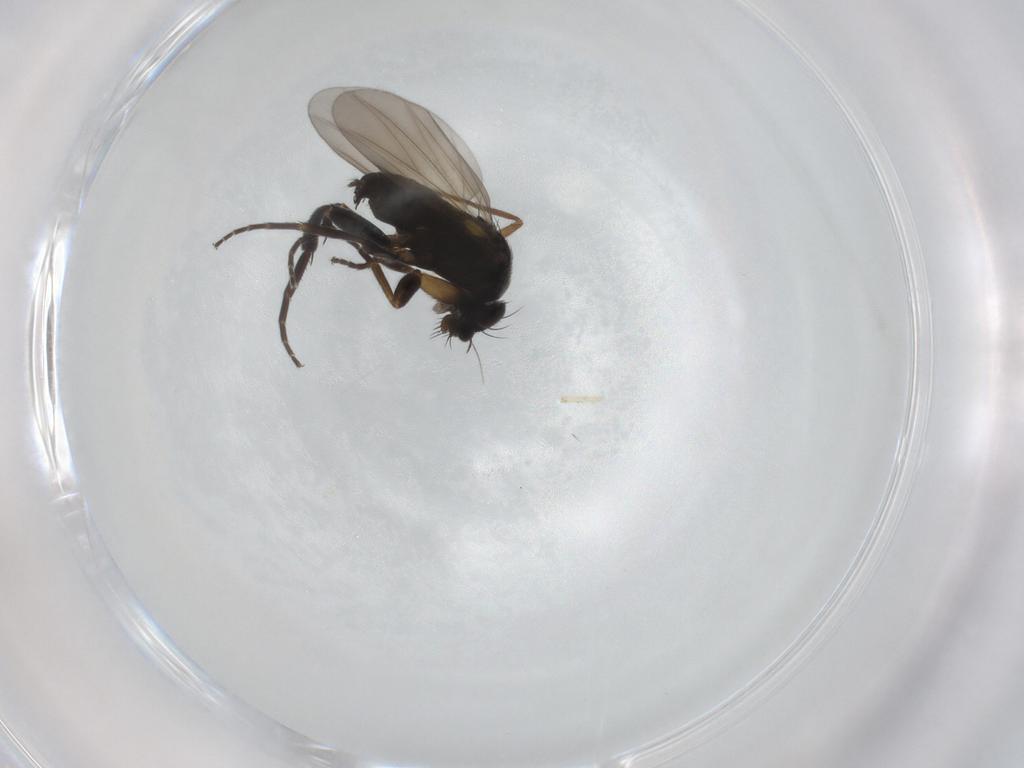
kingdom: Animalia
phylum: Arthropoda
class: Insecta
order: Diptera
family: Phoridae
